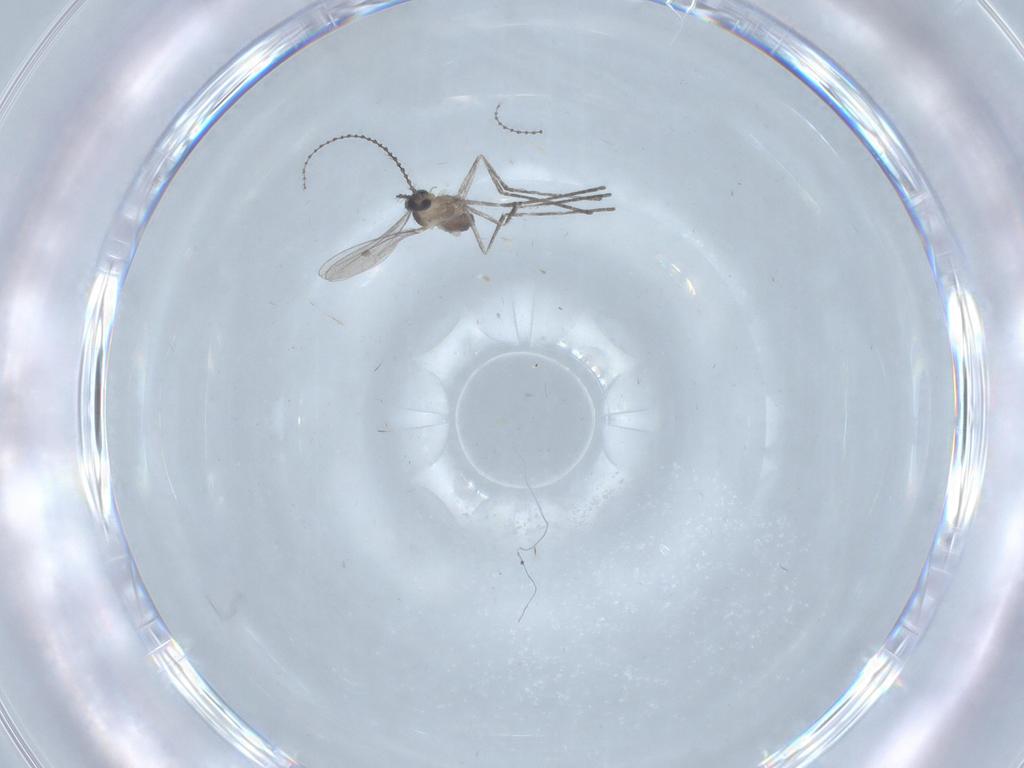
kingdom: Animalia
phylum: Arthropoda
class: Insecta
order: Diptera
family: Cecidomyiidae
